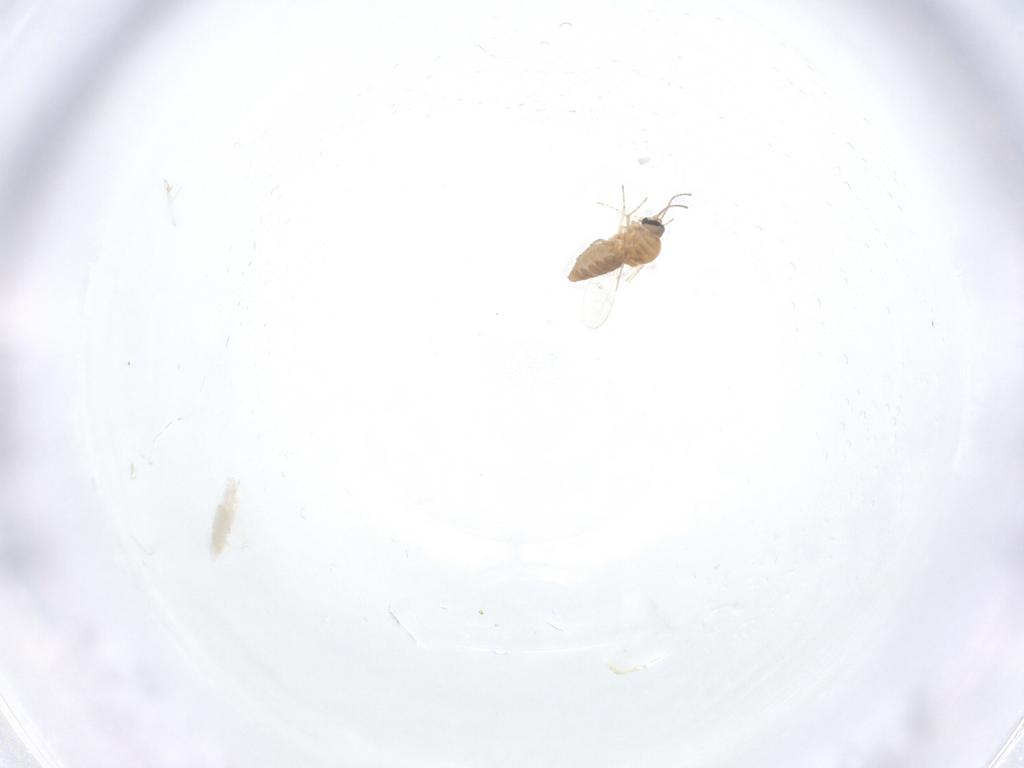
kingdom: Animalia
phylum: Arthropoda
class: Insecta
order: Diptera
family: Ceratopogonidae
